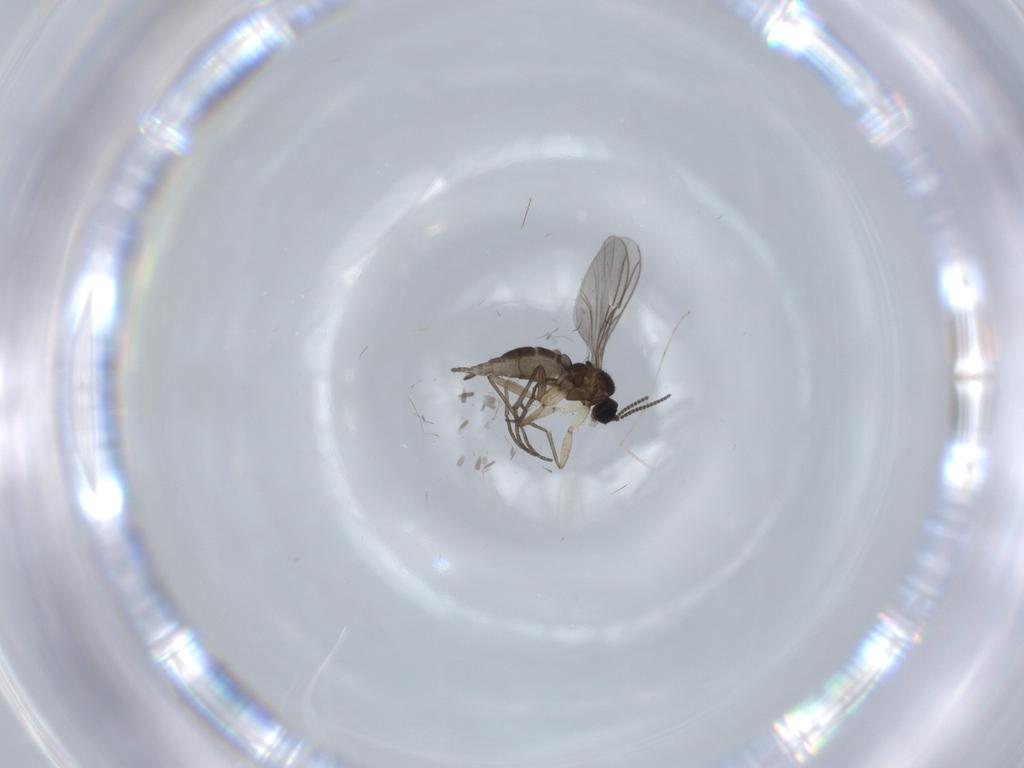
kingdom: Animalia
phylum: Arthropoda
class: Insecta
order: Diptera
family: Sciaridae
